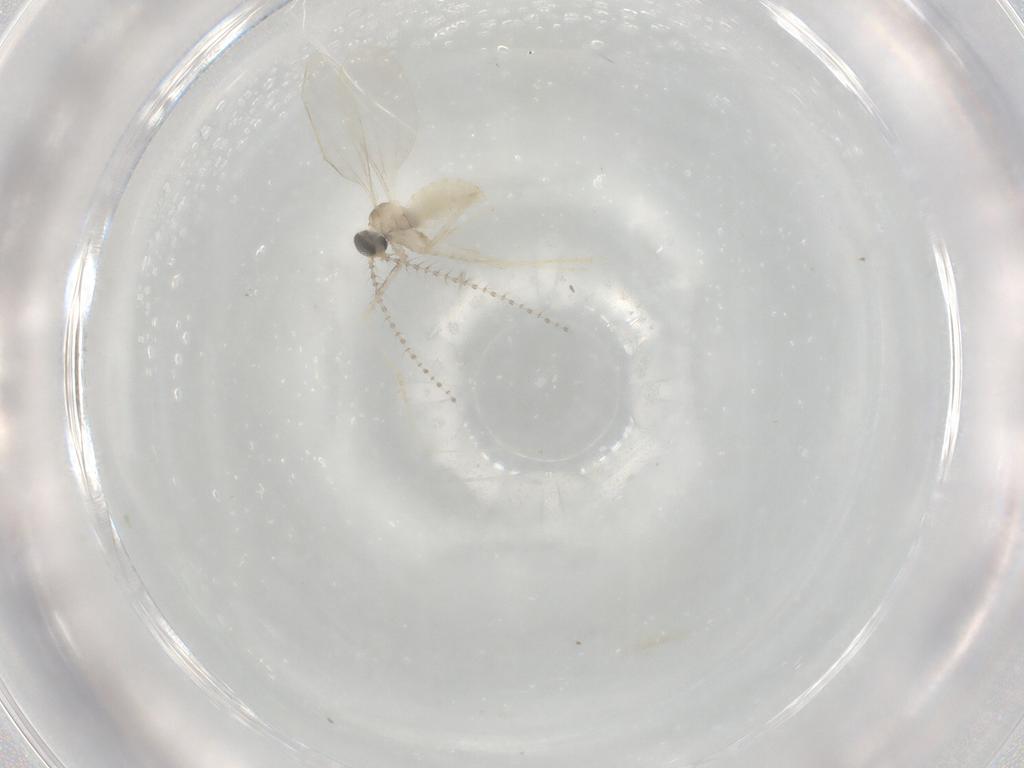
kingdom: Animalia
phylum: Arthropoda
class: Insecta
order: Diptera
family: Cecidomyiidae
